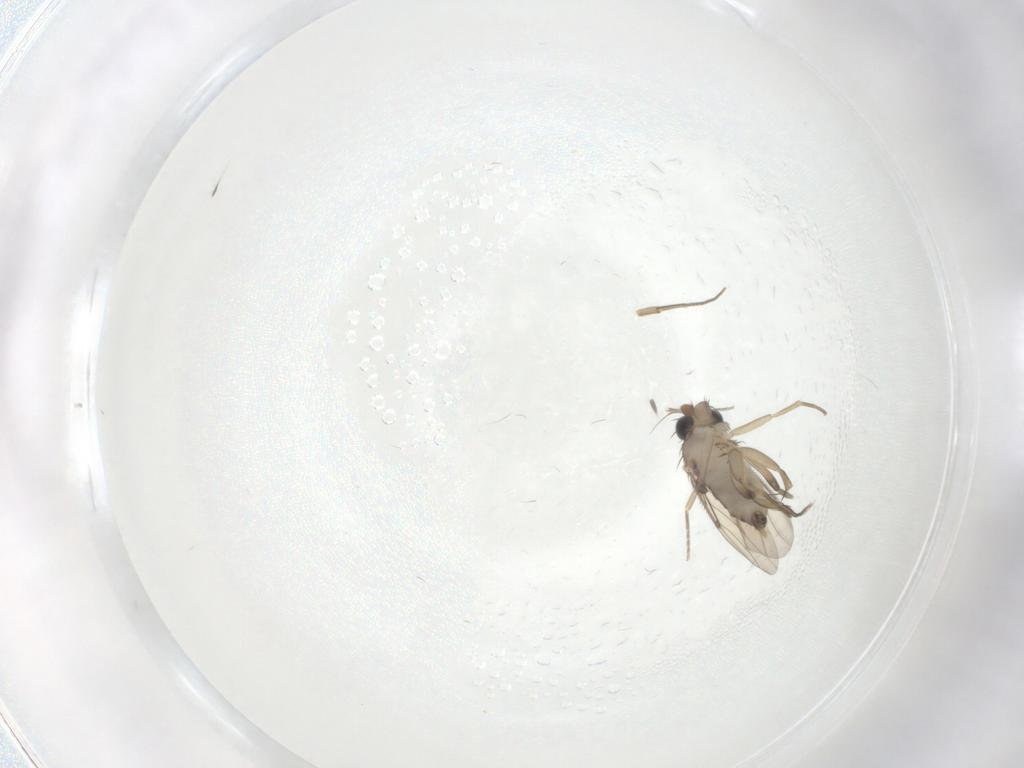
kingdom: Animalia
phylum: Arthropoda
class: Insecta
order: Diptera
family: Phoridae
